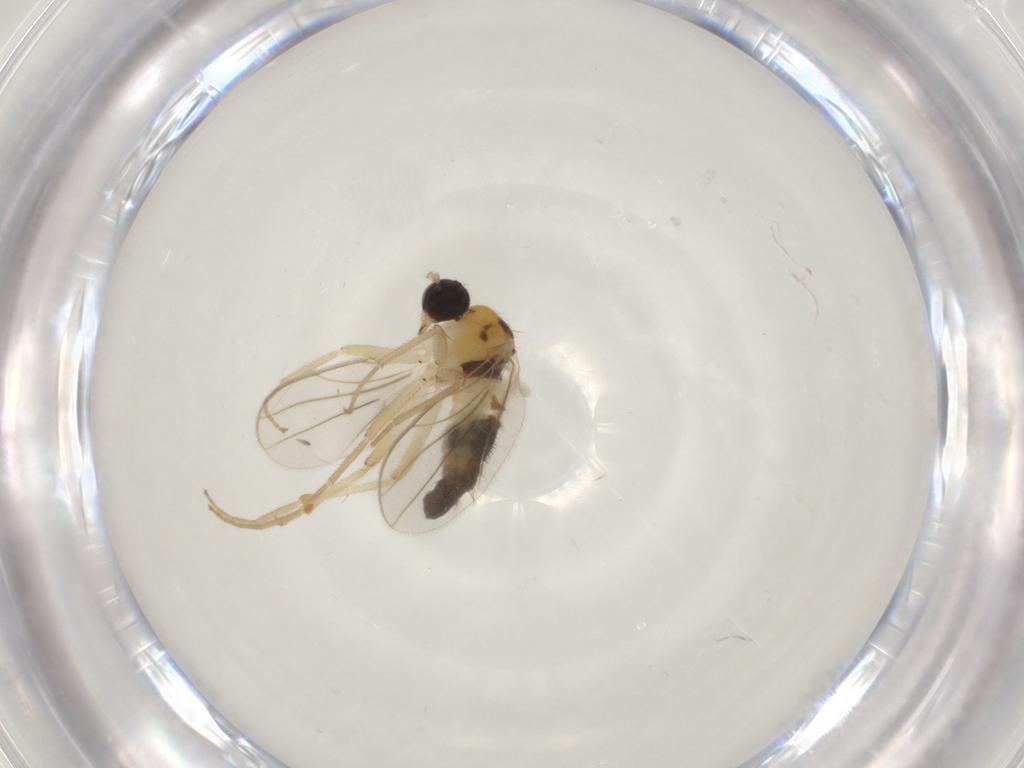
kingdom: Animalia
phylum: Arthropoda
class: Insecta
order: Diptera
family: Hybotidae
